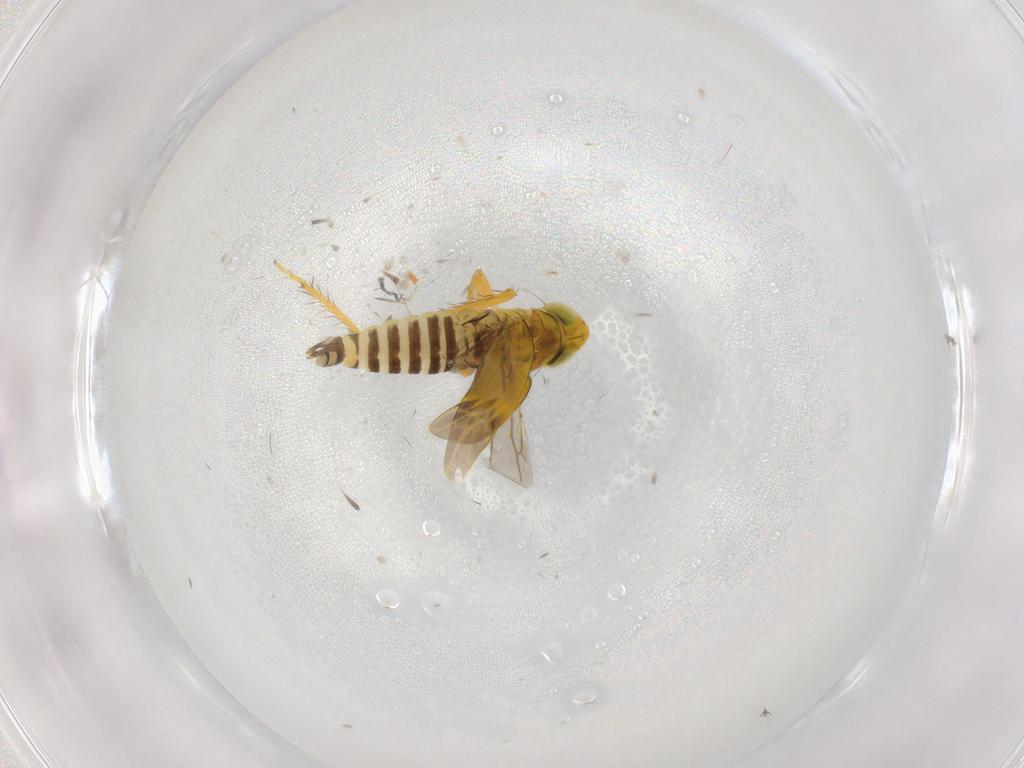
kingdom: Animalia
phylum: Arthropoda
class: Insecta
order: Hemiptera
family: Cicadellidae
